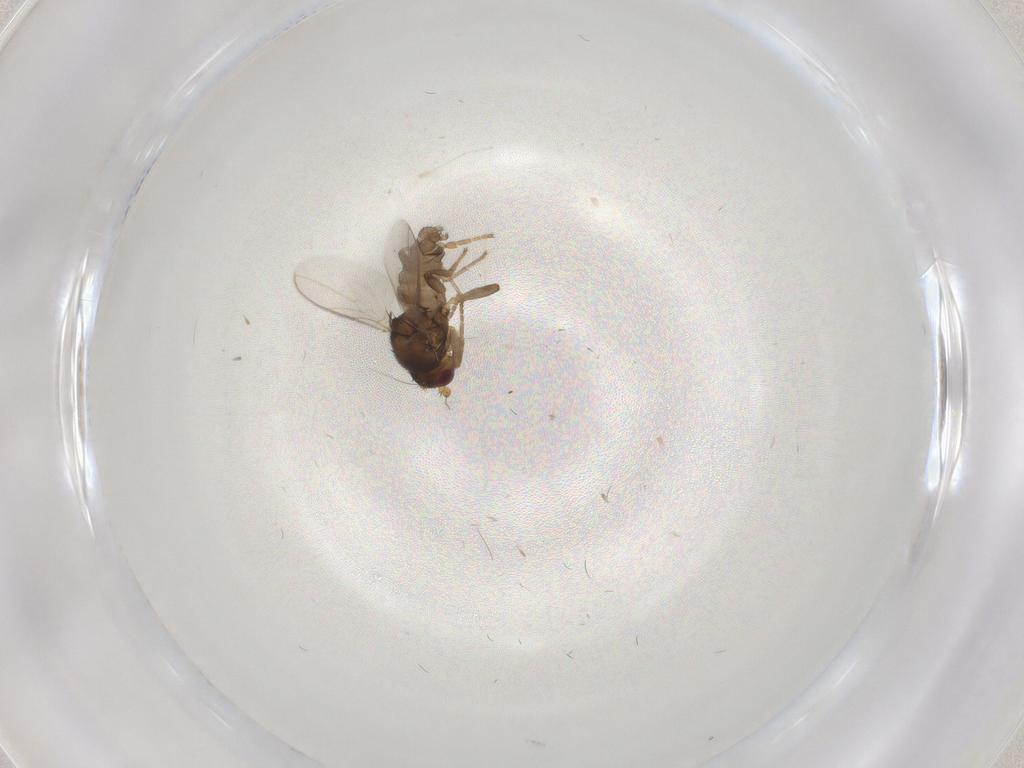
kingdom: Animalia
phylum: Arthropoda
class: Insecta
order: Diptera
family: Sphaeroceridae
